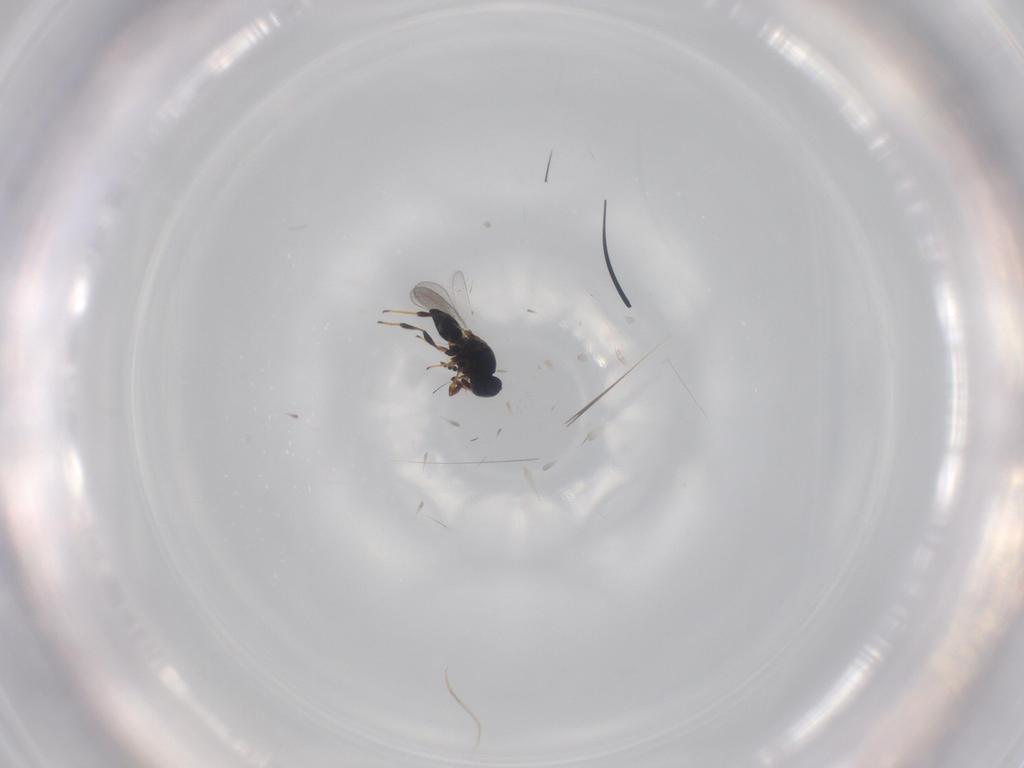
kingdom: Animalia
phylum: Arthropoda
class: Insecta
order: Hymenoptera
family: Platygastridae
